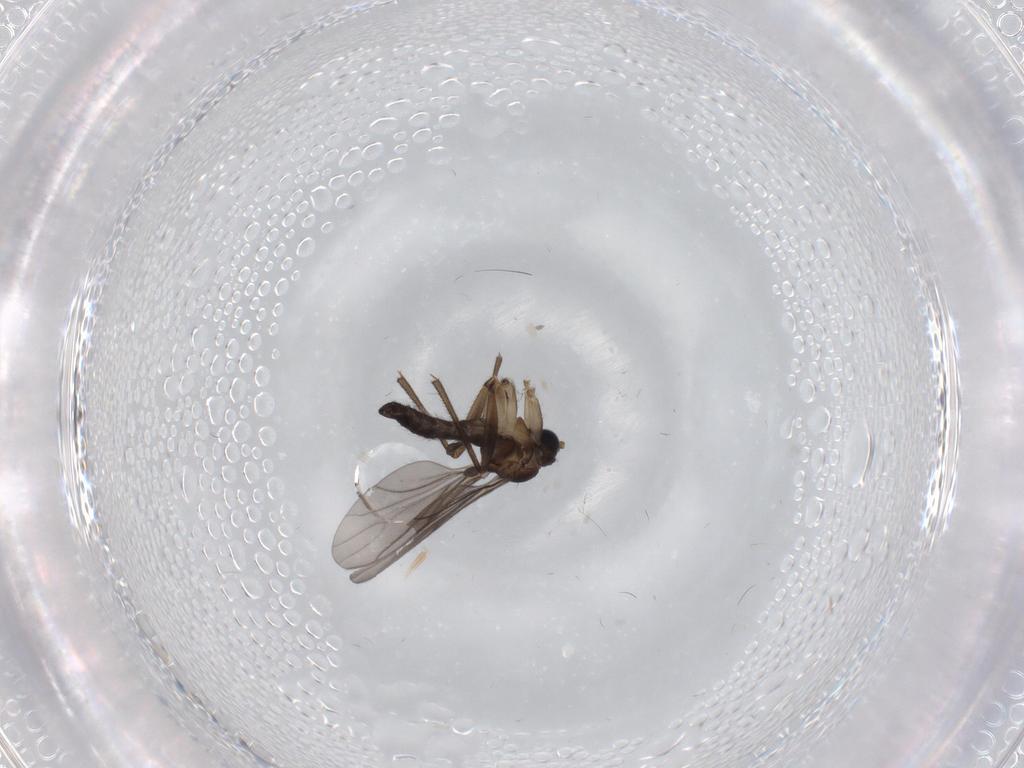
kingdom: Animalia
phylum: Arthropoda
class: Insecta
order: Diptera
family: Sciaridae
